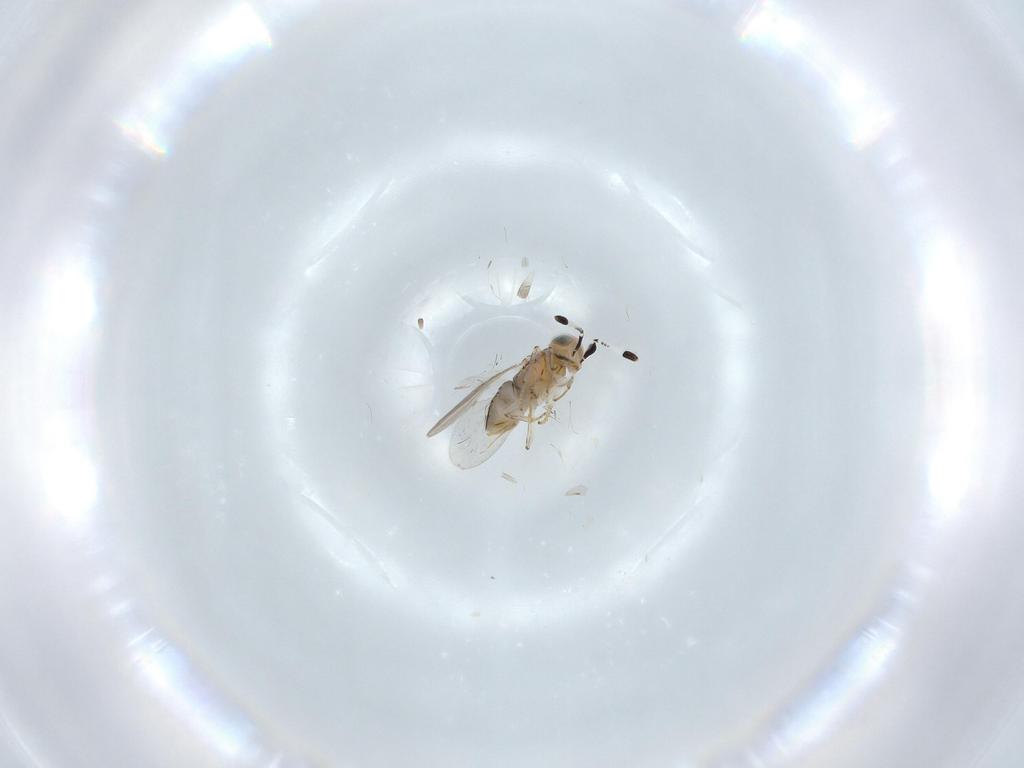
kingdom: Animalia
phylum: Arthropoda
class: Insecta
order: Hymenoptera
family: Encyrtidae
